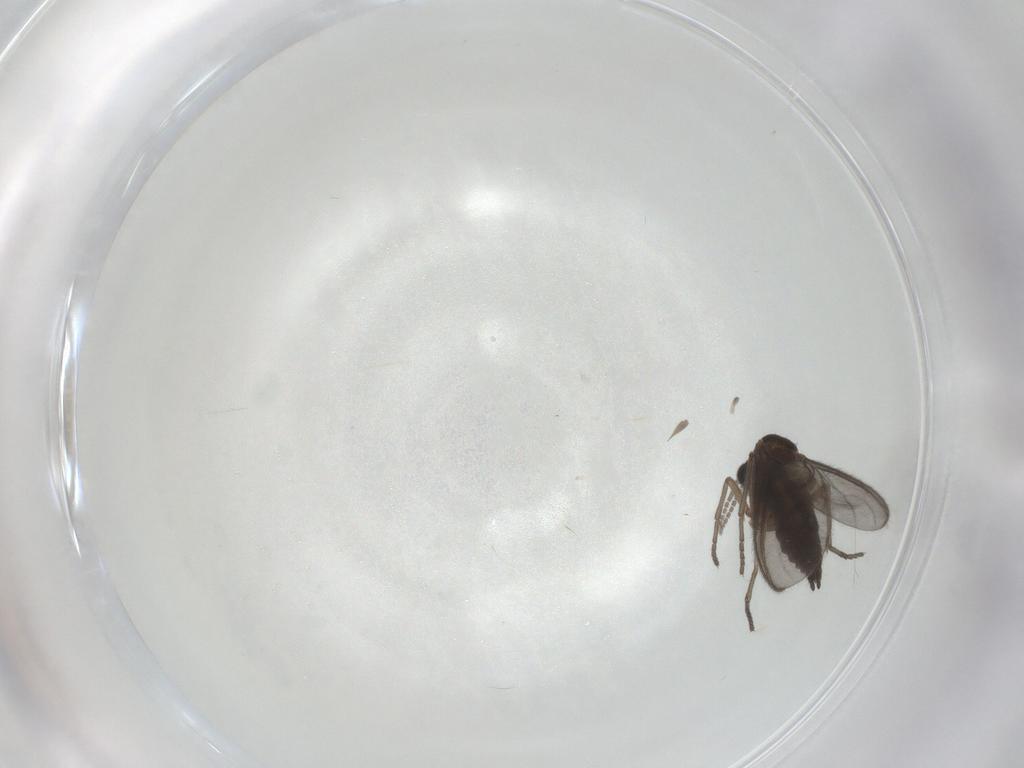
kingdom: Animalia
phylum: Arthropoda
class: Insecta
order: Diptera
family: Sciaridae
